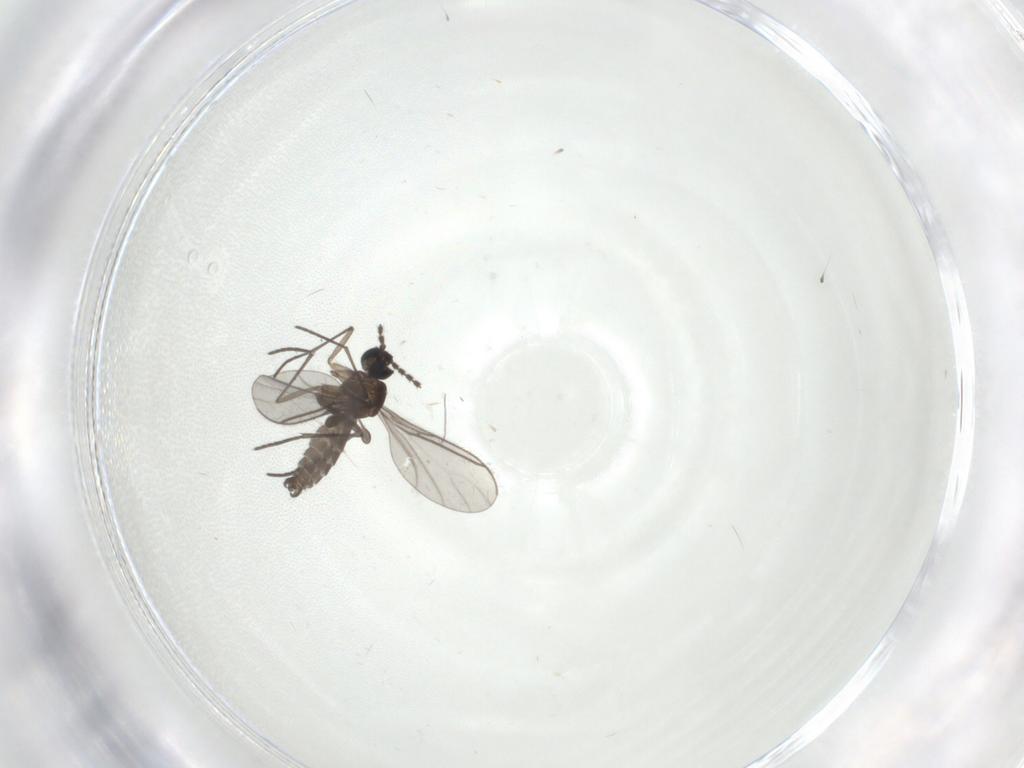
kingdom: Animalia
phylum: Arthropoda
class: Insecta
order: Diptera
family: Cecidomyiidae
